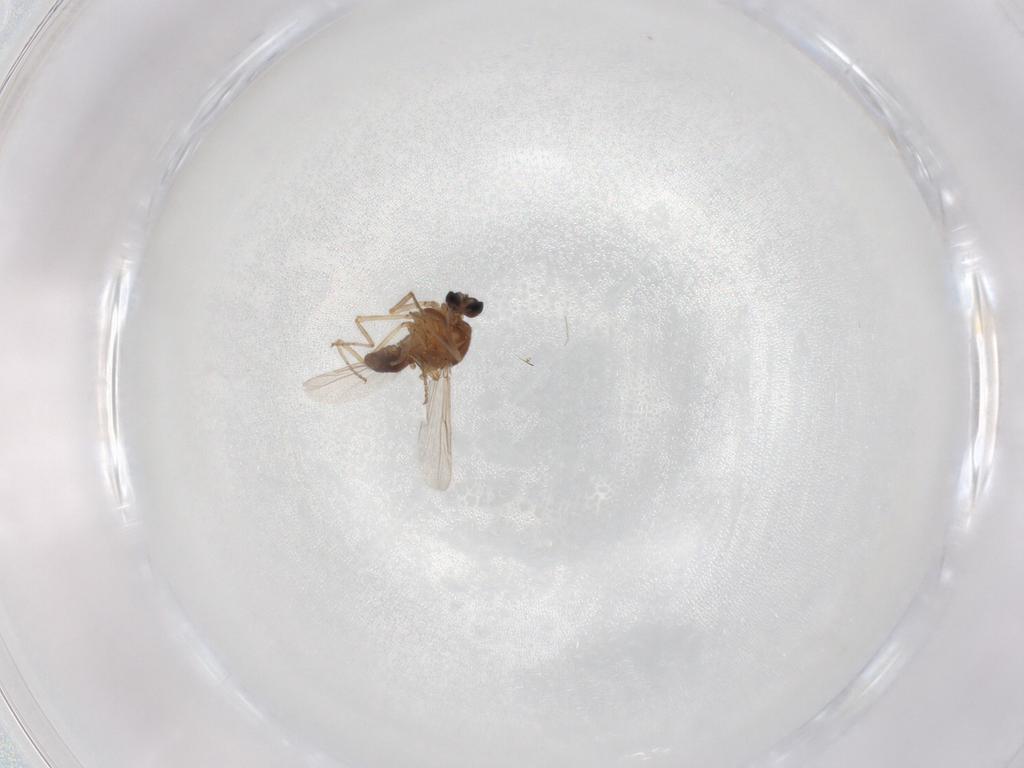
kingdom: Animalia
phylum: Arthropoda
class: Insecta
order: Diptera
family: Ceratopogonidae
